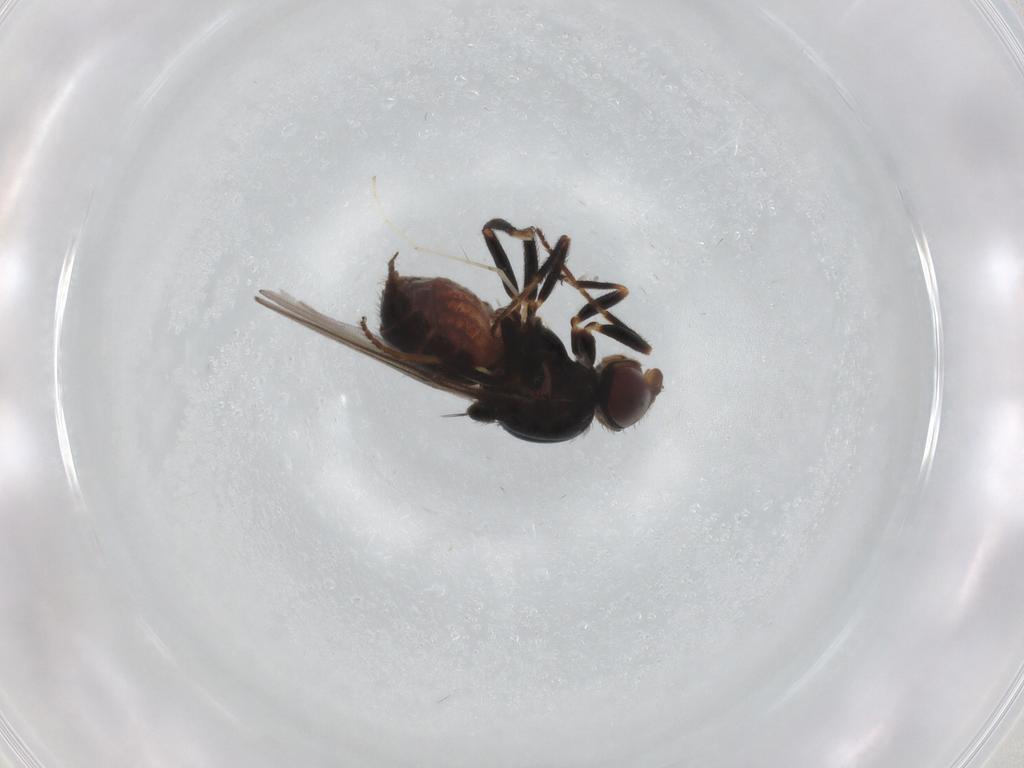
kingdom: Animalia
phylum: Arthropoda
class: Insecta
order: Diptera
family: Chloropidae
